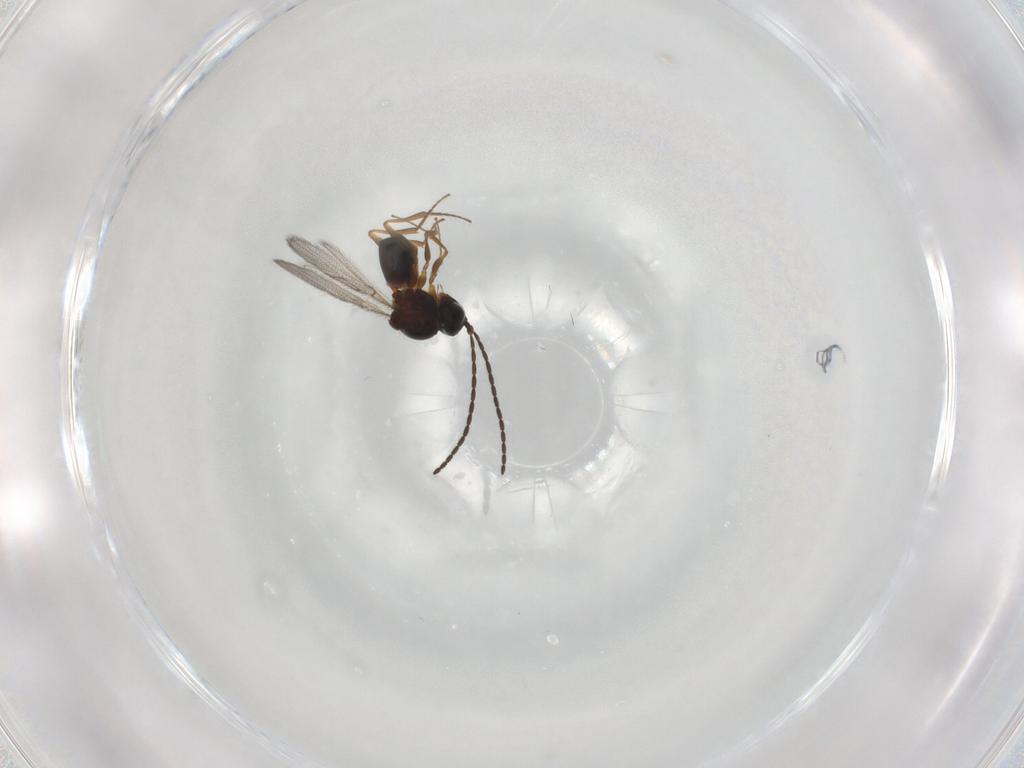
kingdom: Animalia
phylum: Arthropoda
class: Insecta
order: Hymenoptera
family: Figitidae
